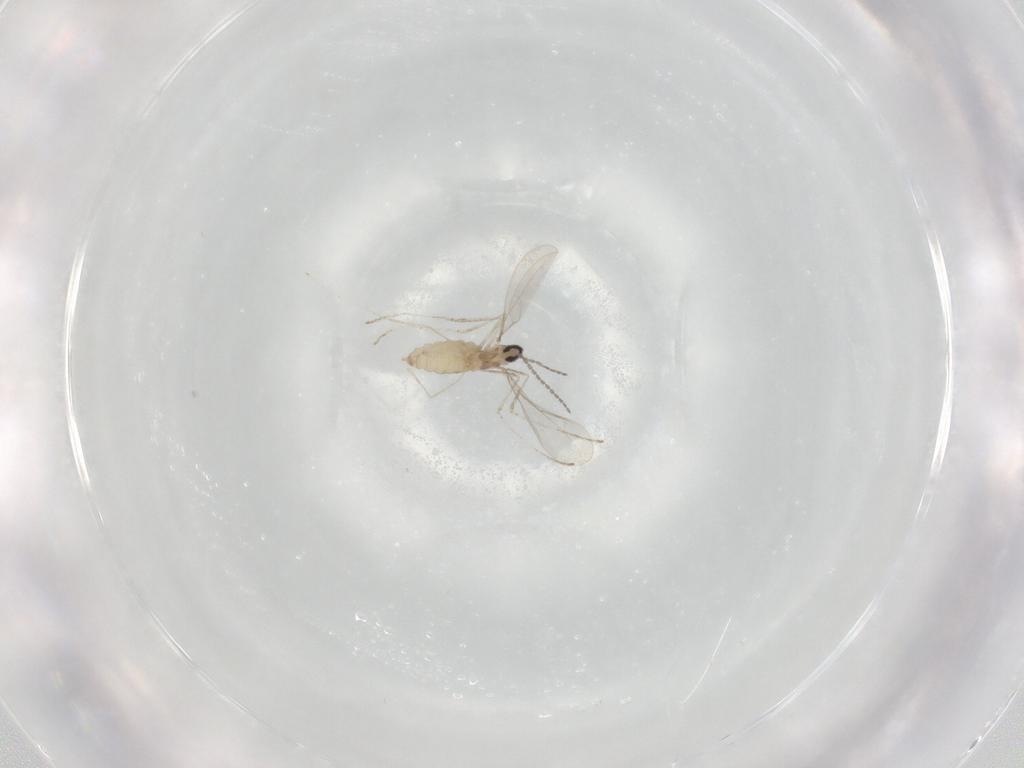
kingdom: Animalia
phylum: Arthropoda
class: Insecta
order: Diptera
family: Cecidomyiidae
